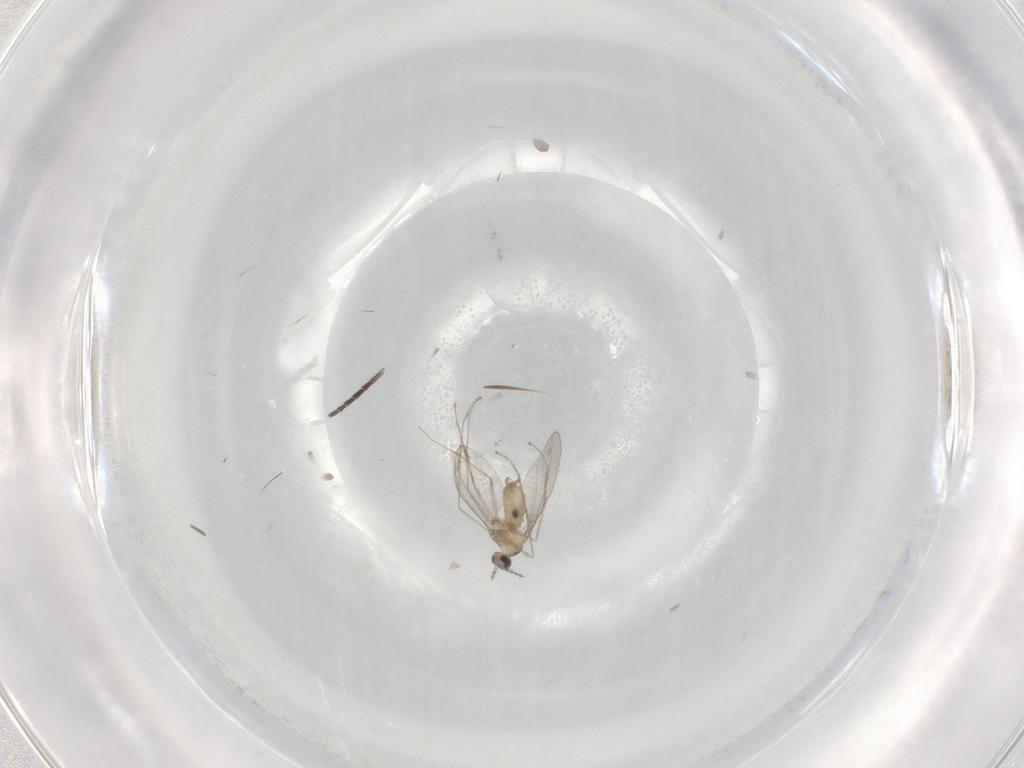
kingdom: Animalia
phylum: Arthropoda
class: Insecta
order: Diptera
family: Cecidomyiidae
